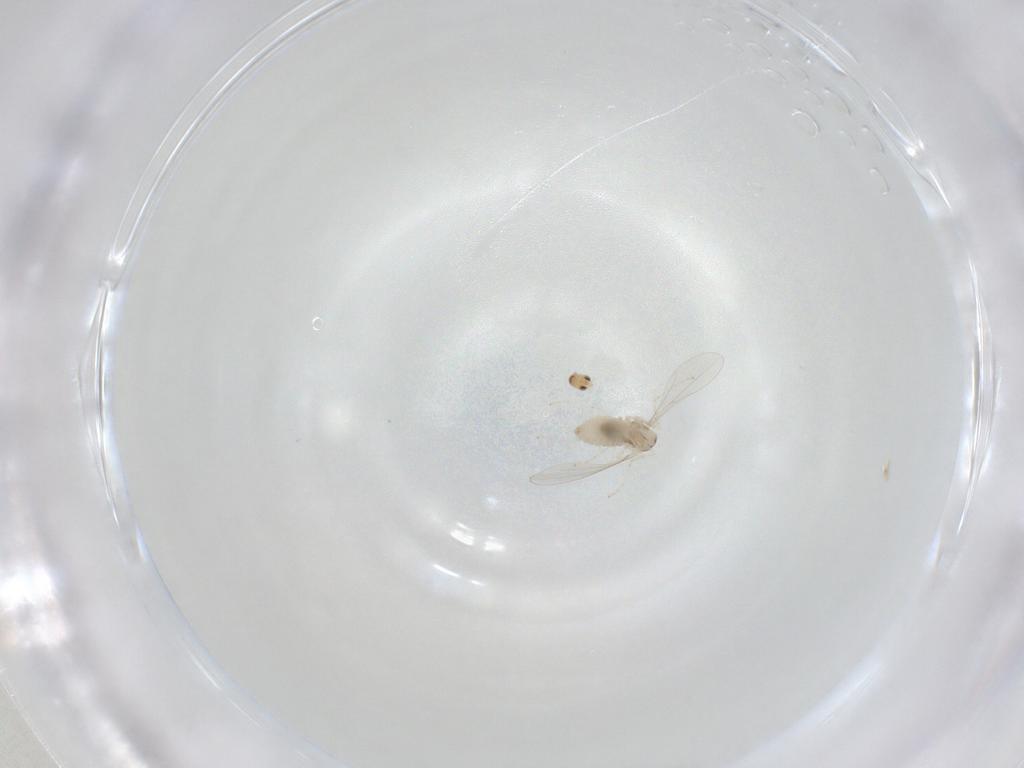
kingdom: Animalia
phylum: Arthropoda
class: Insecta
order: Diptera
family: Phoridae
